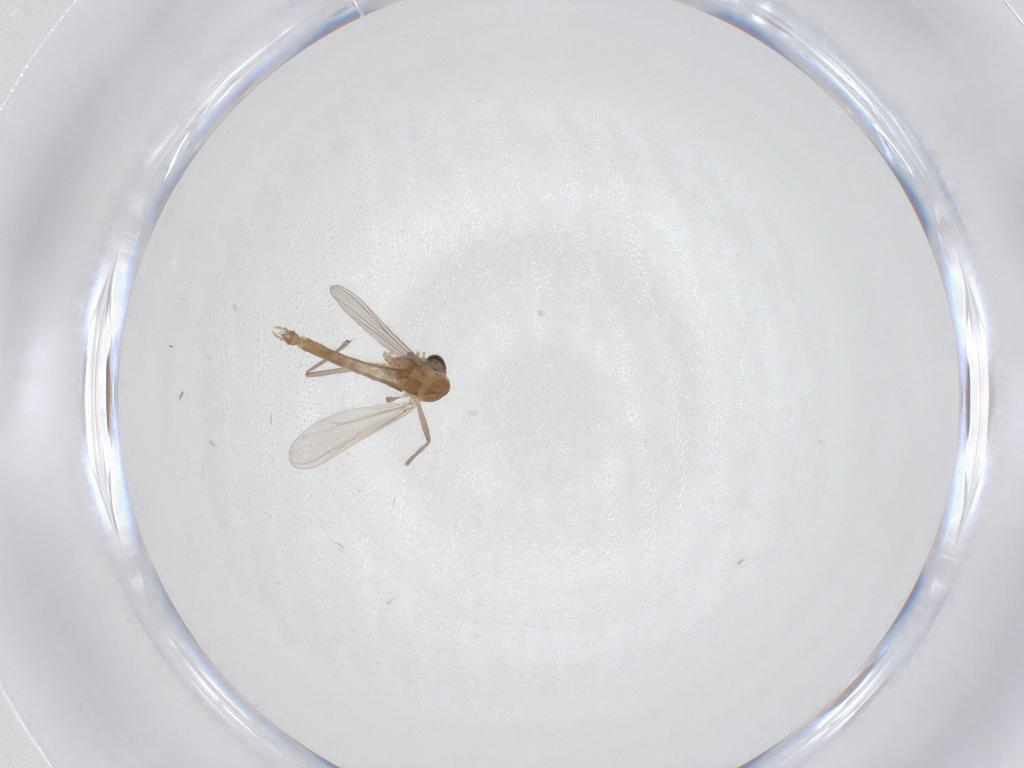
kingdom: Animalia
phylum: Arthropoda
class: Insecta
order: Diptera
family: Chironomidae
